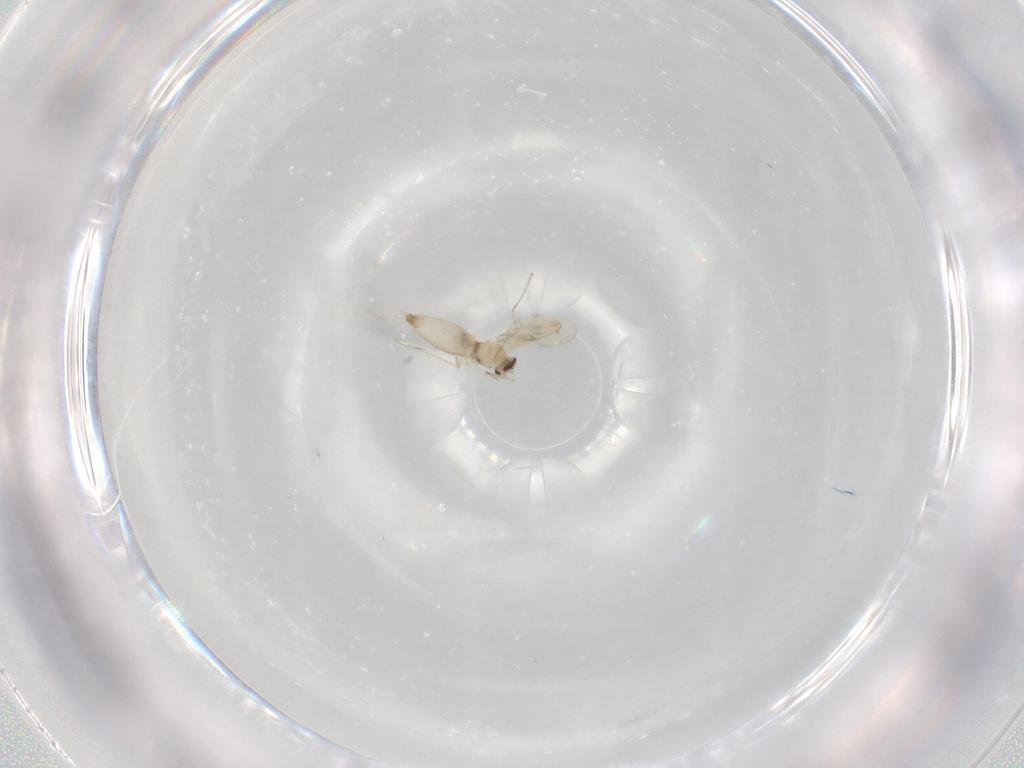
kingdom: Animalia
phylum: Arthropoda
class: Insecta
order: Diptera
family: Cecidomyiidae
